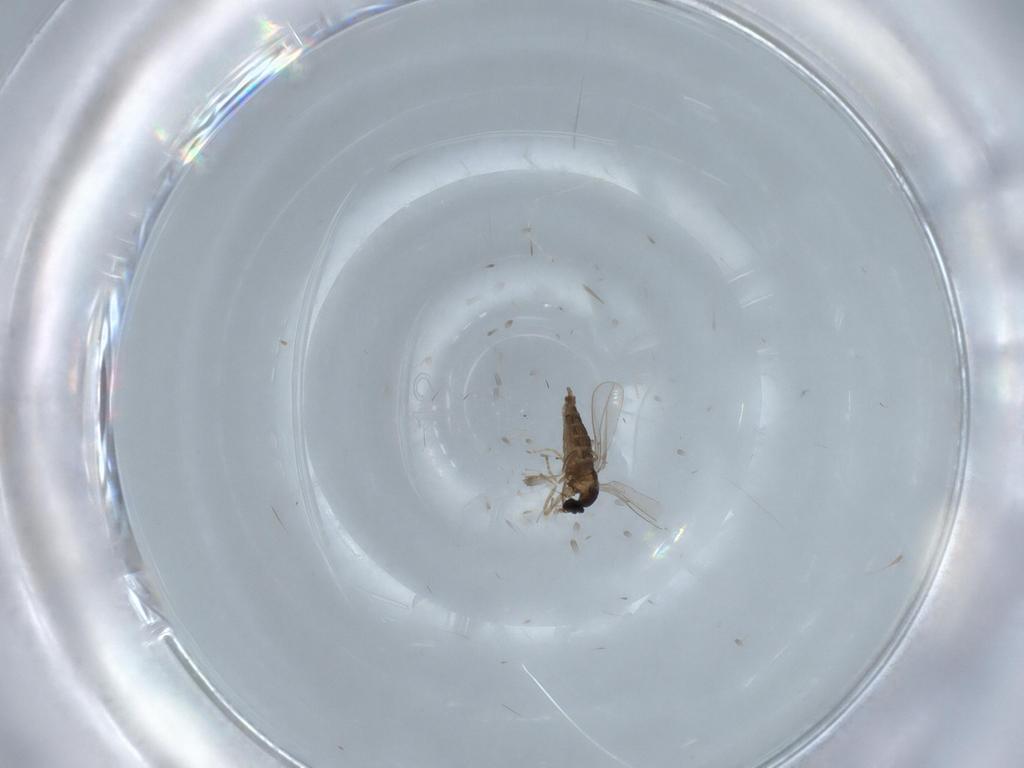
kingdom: Animalia
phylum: Arthropoda
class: Insecta
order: Diptera
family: Cecidomyiidae
